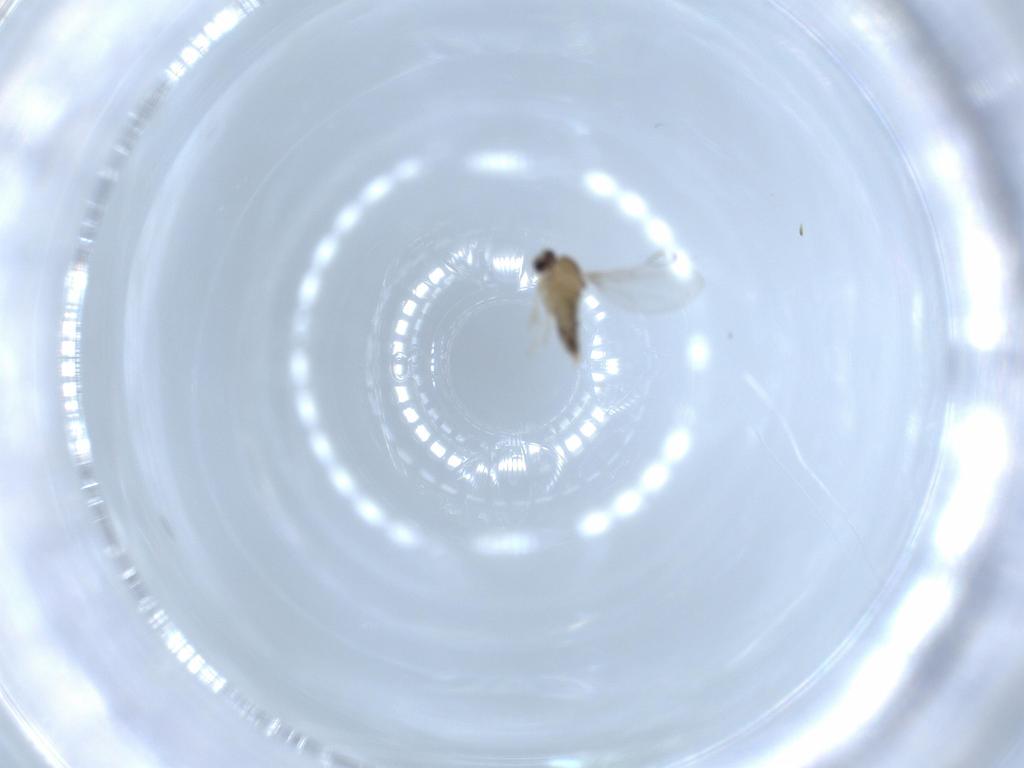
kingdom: Animalia
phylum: Arthropoda
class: Insecta
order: Diptera
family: Cecidomyiidae
